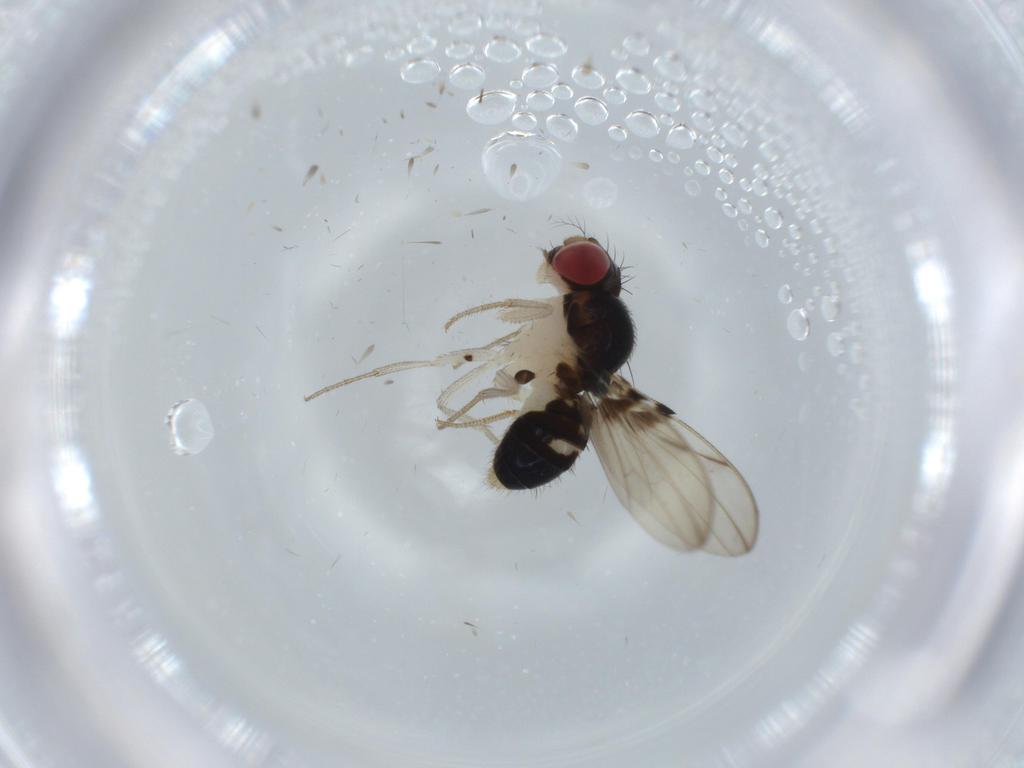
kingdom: Animalia
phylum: Arthropoda
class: Insecta
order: Diptera
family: Drosophilidae
